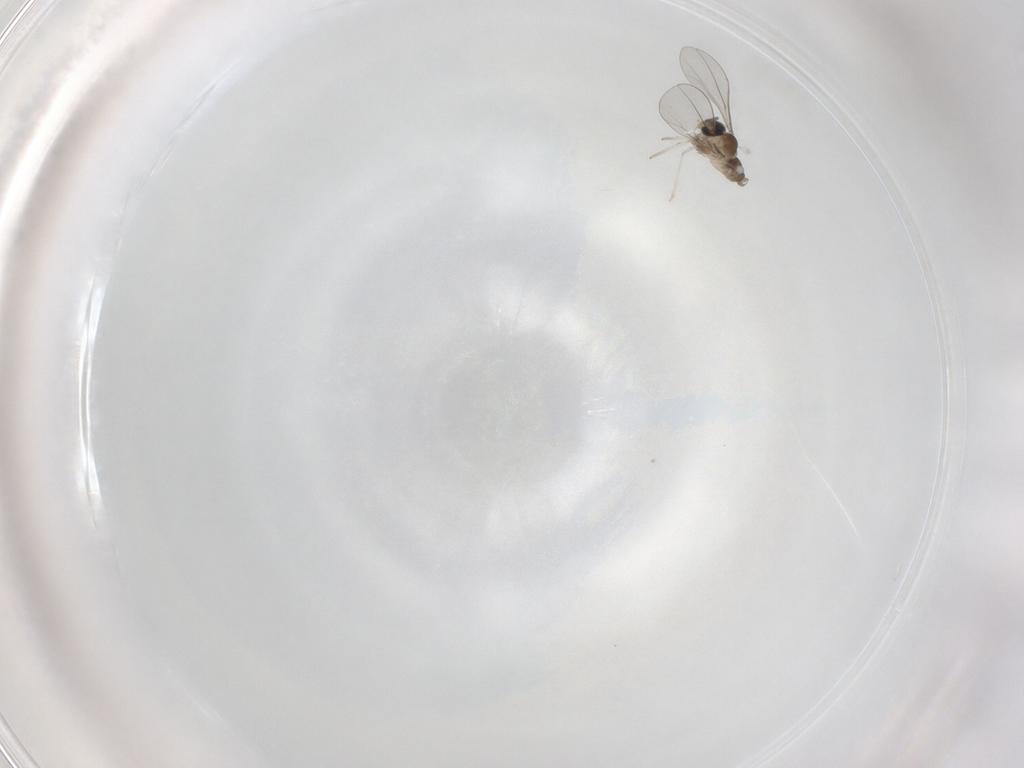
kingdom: Animalia
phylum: Arthropoda
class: Insecta
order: Diptera
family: Cecidomyiidae
